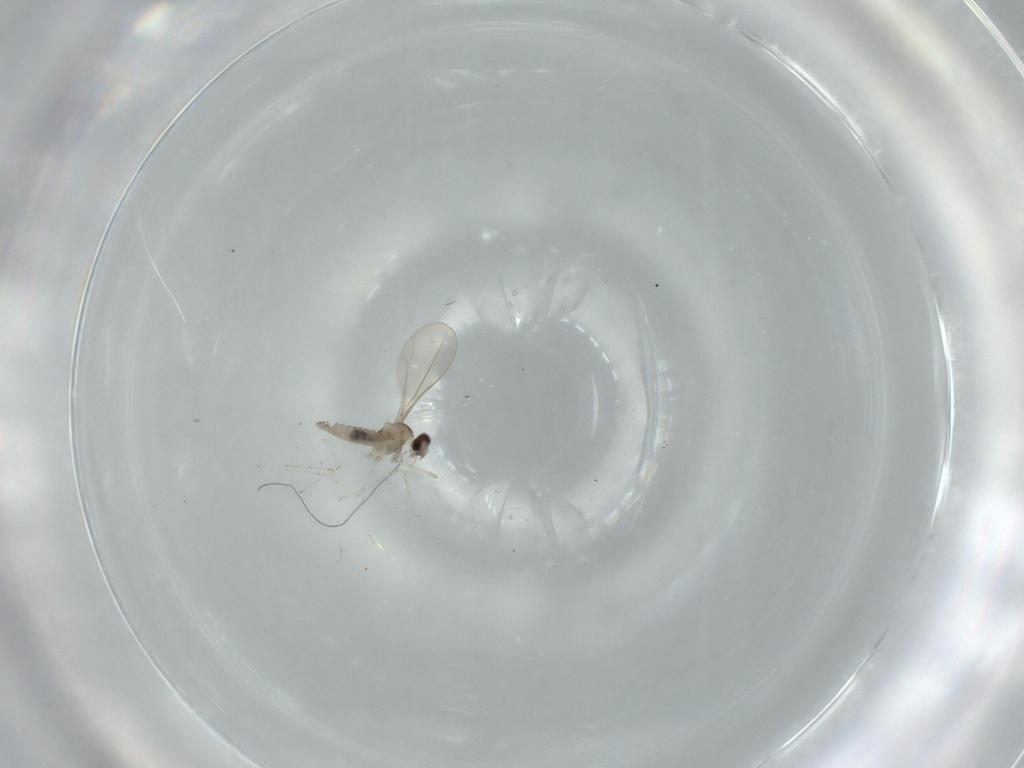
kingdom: Animalia
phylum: Arthropoda
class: Insecta
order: Diptera
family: Cecidomyiidae
